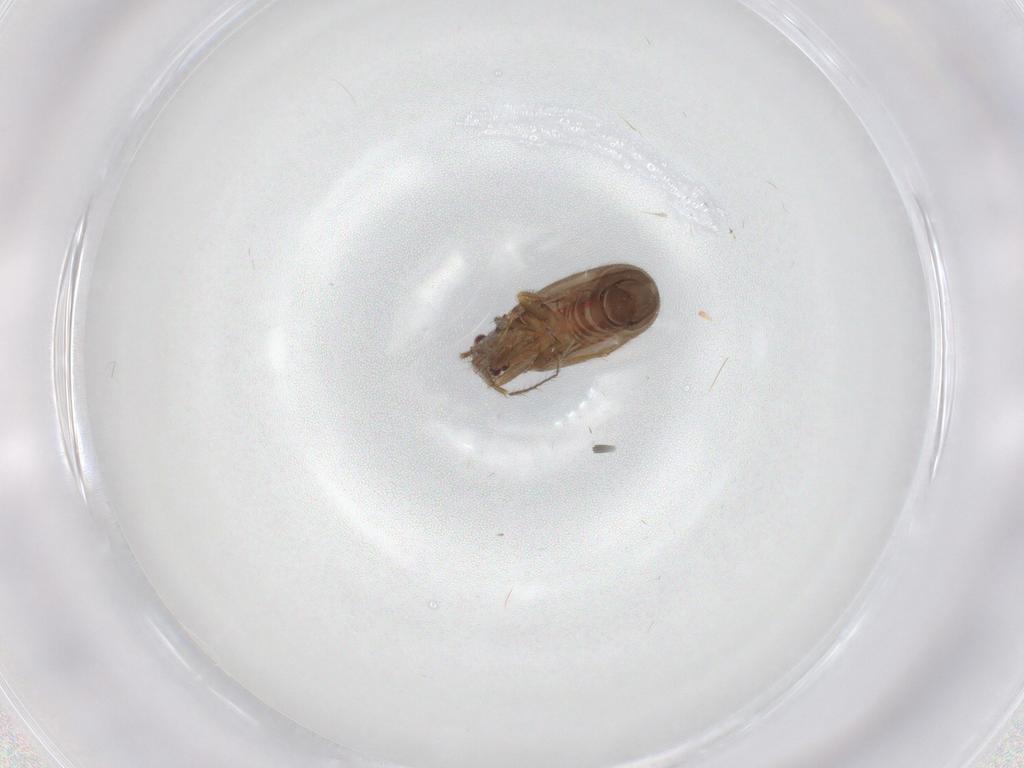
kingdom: Animalia
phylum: Arthropoda
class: Insecta
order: Hemiptera
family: Ceratocombidae
